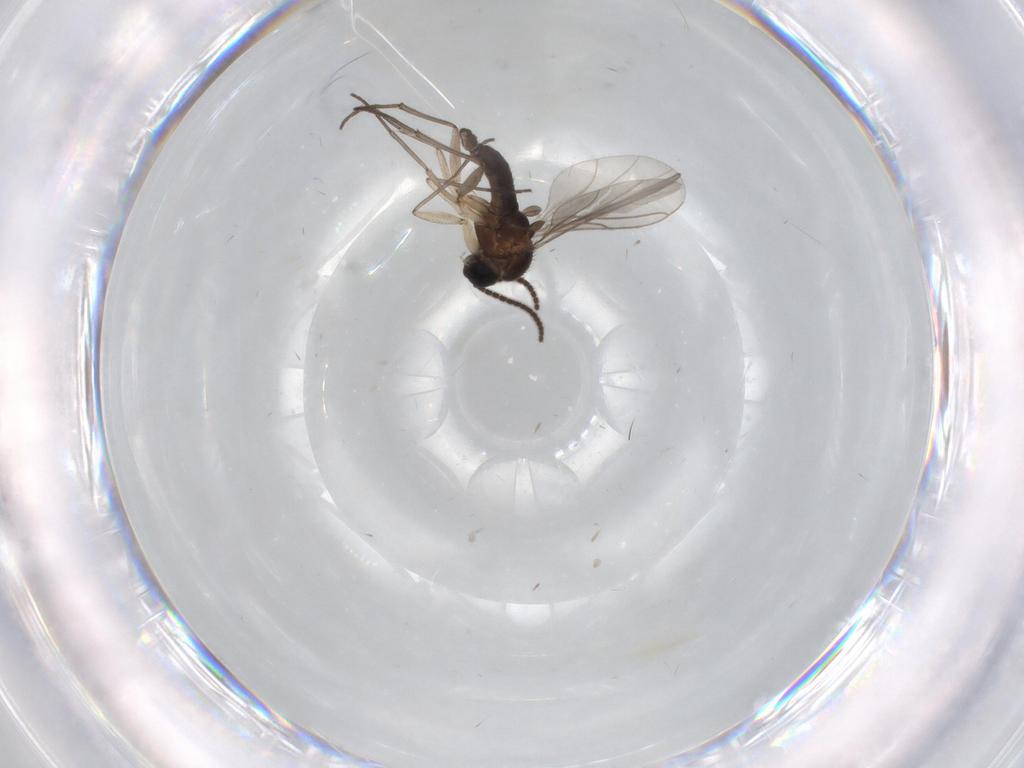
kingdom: Animalia
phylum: Arthropoda
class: Insecta
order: Diptera
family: Sciaridae
